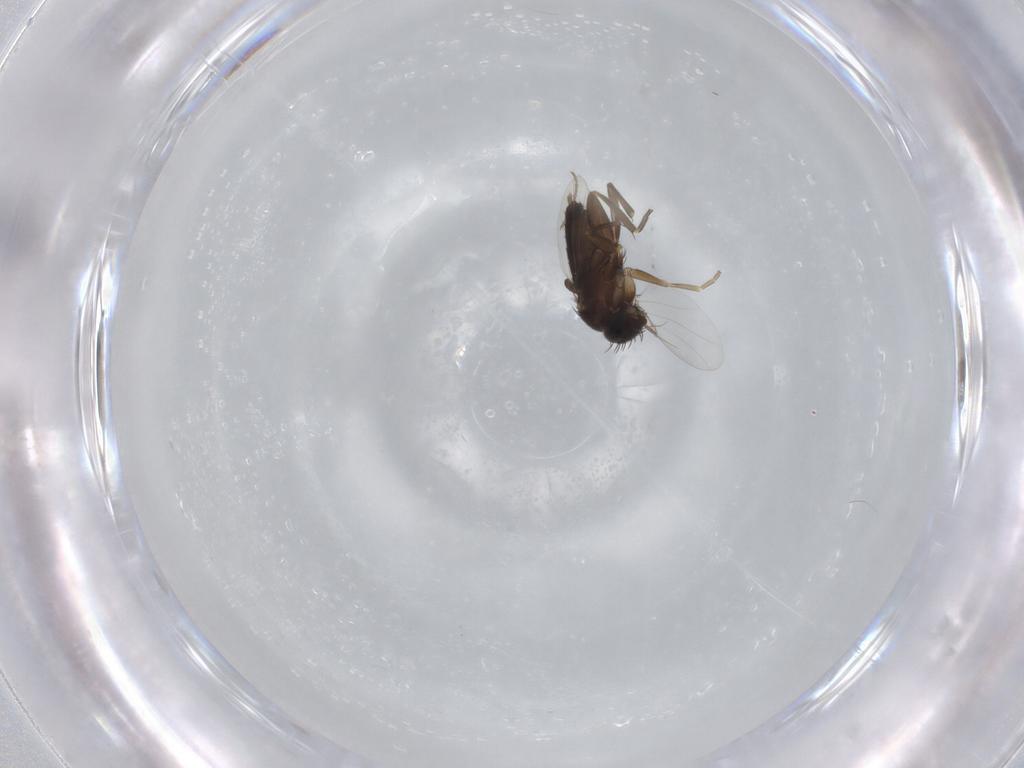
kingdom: Animalia
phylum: Arthropoda
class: Insecta
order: Diptera
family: Phoridae
